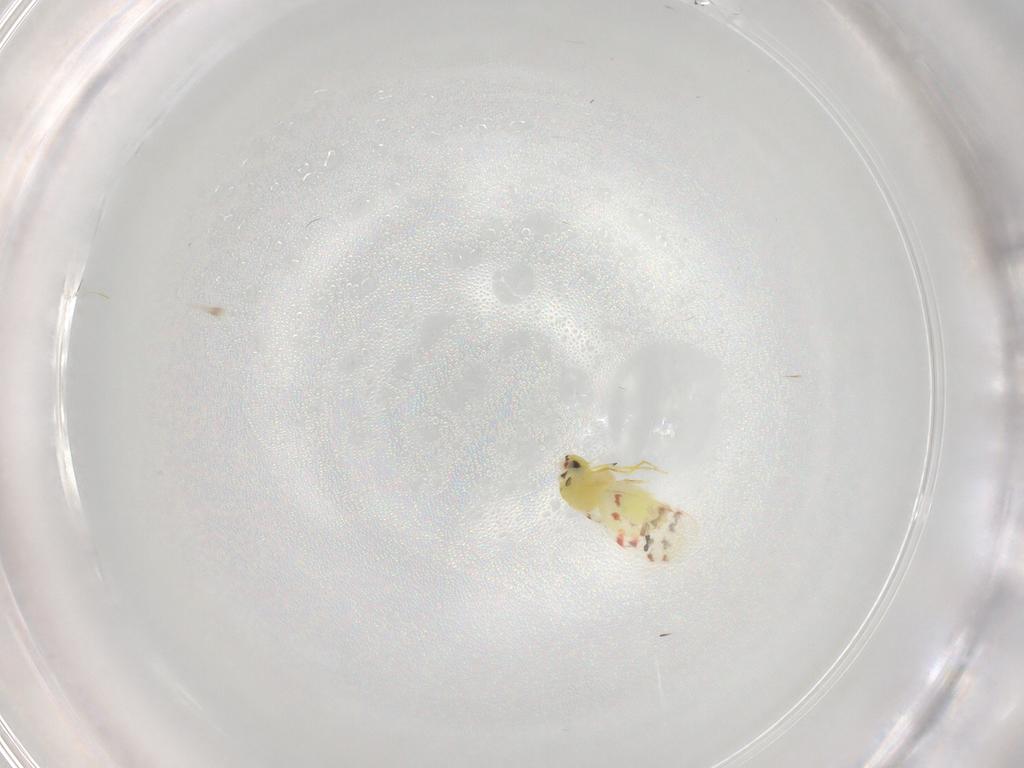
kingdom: Animalia
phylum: Arthropoda
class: Insecta
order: Hemiptera
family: Aleyrodidae
